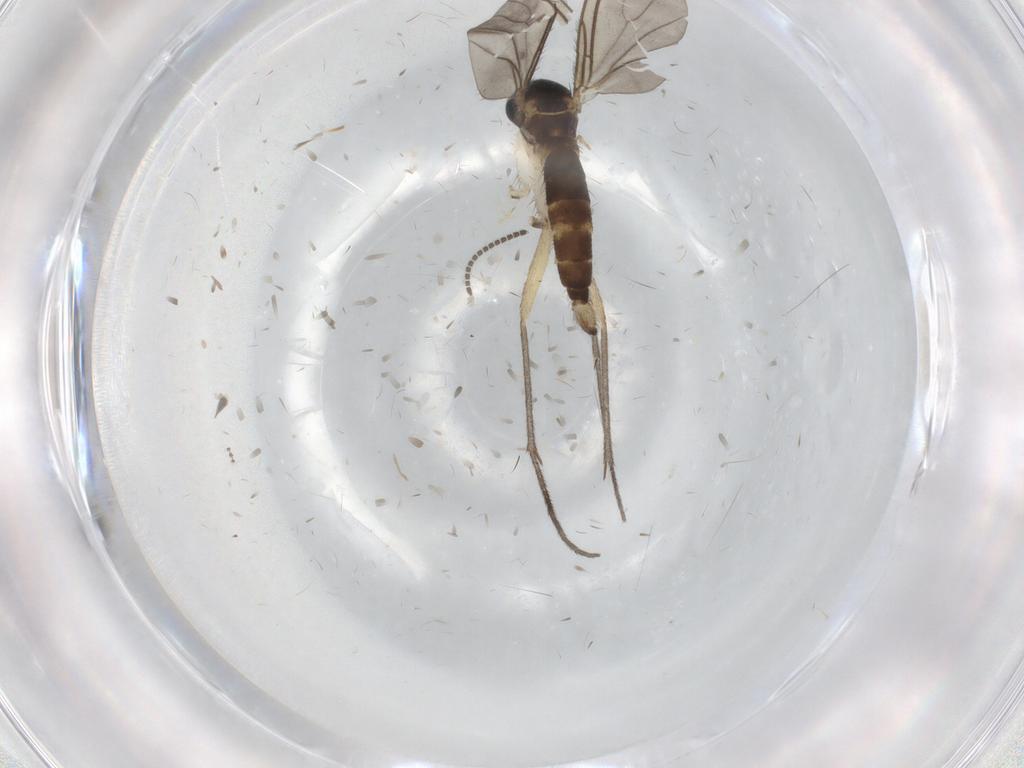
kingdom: Animalia
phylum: Arthropoda
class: Insecta
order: Diptera
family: Sciaridae
